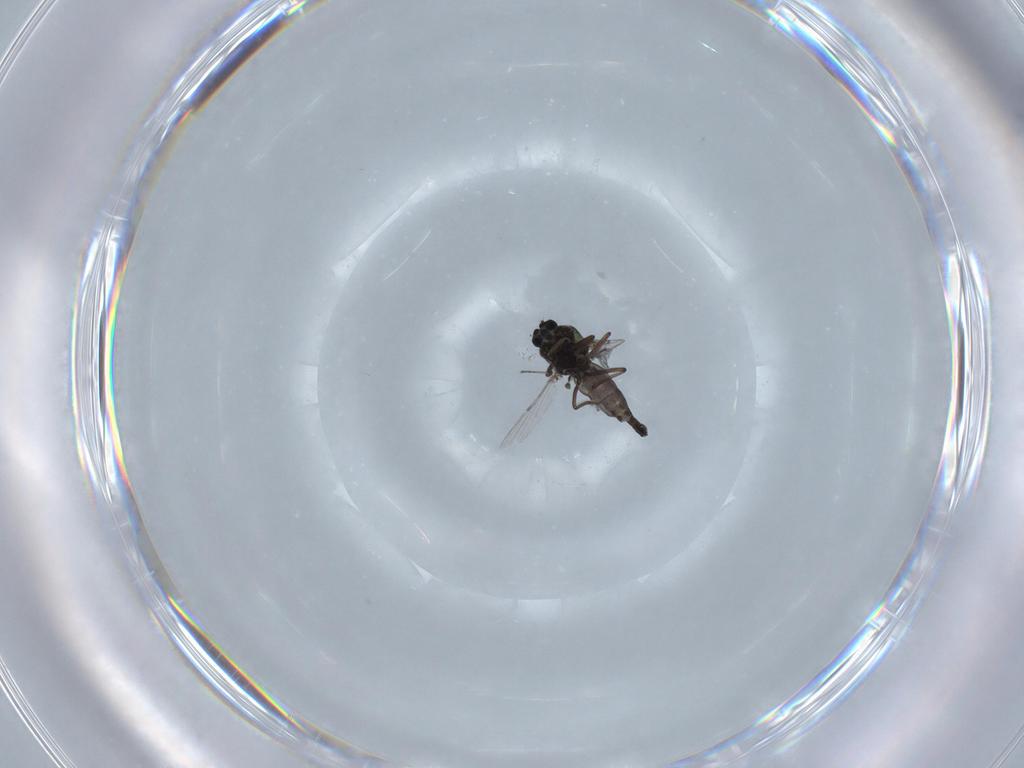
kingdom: Animalia
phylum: Arthropoda
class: Insecta
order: Diptera
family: Ceratopogonidae
